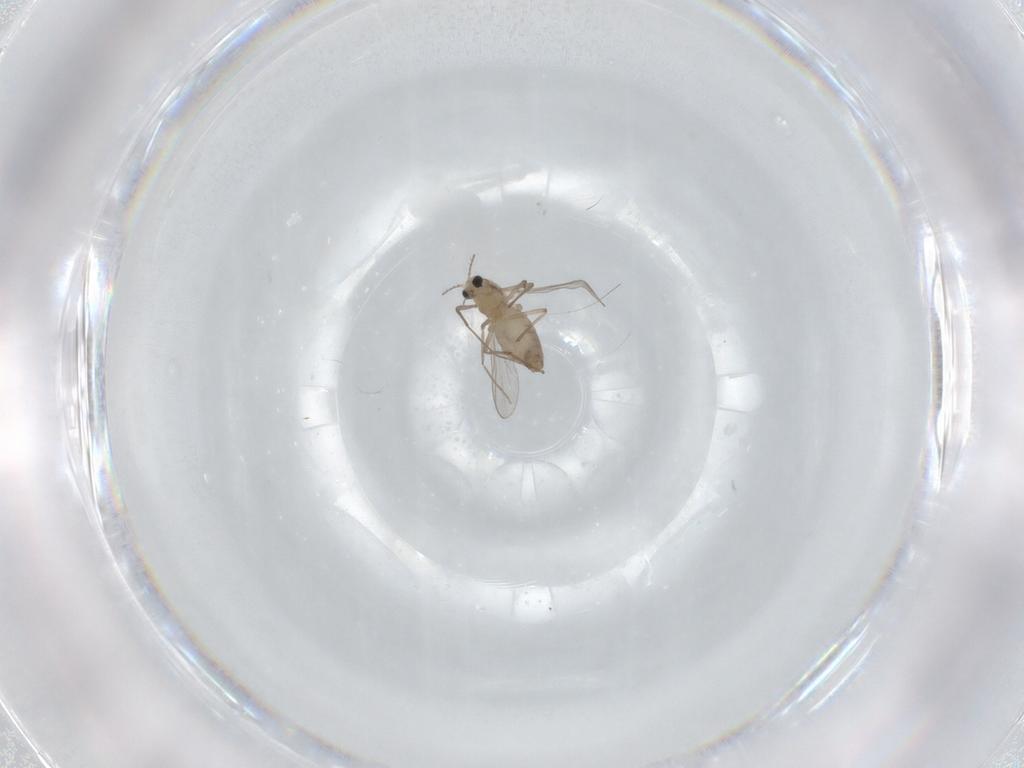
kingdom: Animalia
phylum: Arthropoda
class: Insecta
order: Diptera
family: Chironomidae
